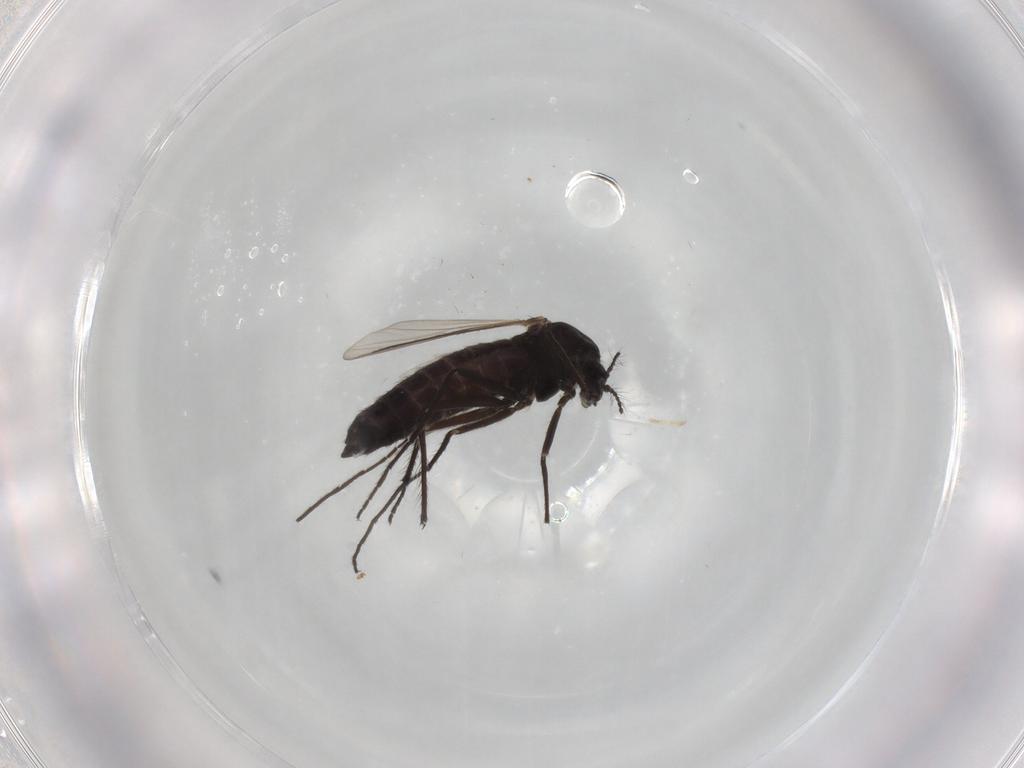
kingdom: Animalia
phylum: Arthropoda
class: Insecta
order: Diptera
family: Chironomidae
